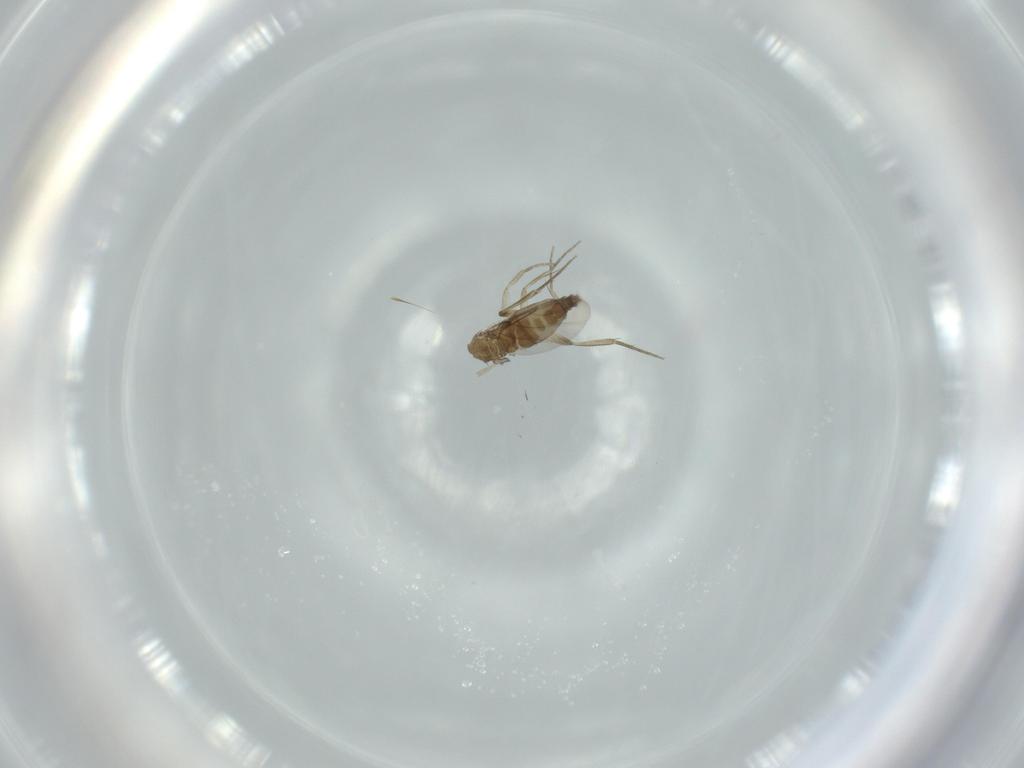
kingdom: Animalia
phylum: Arthropoda
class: Insecta
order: Diptera
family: Phoridae
